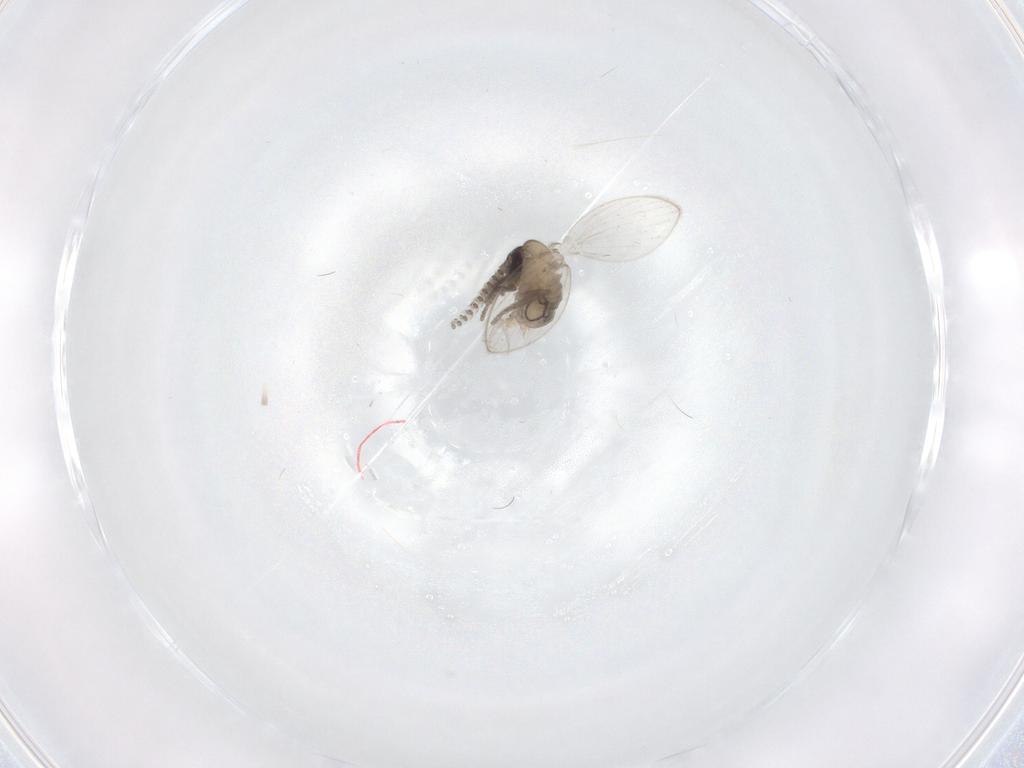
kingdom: Animalia
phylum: Arthropoda
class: Insecta
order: Diptera
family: Psychodidae
